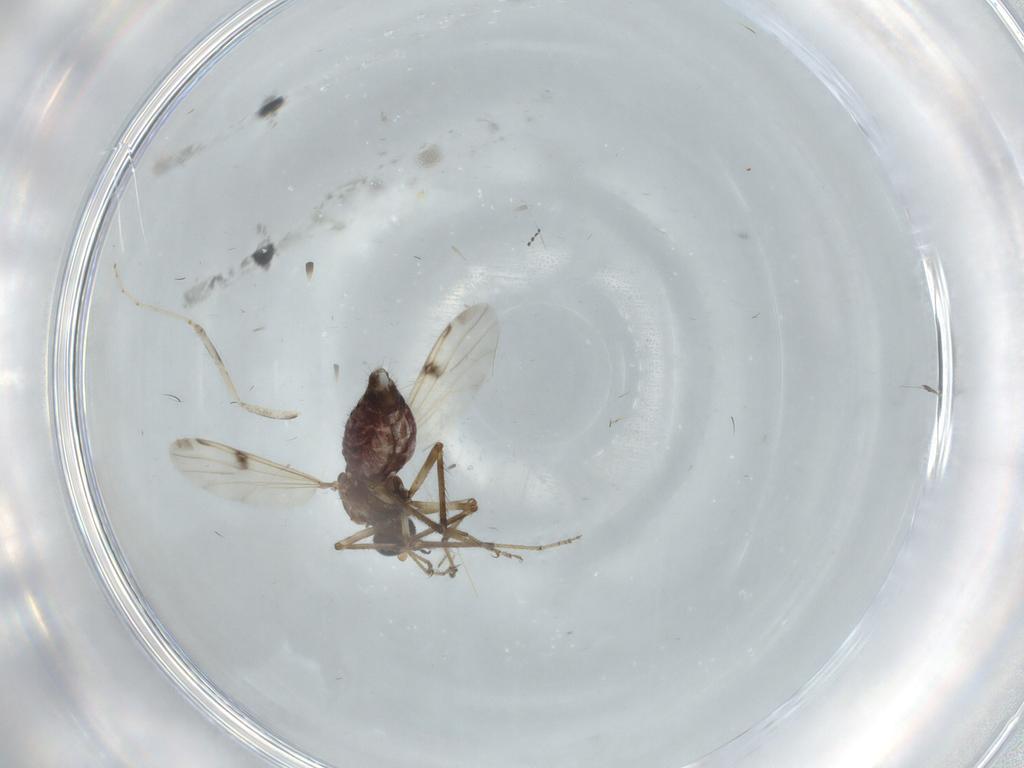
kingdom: Animalia
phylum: Arthropoda
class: Insecta
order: Diptera
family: Cecidomyiidae
